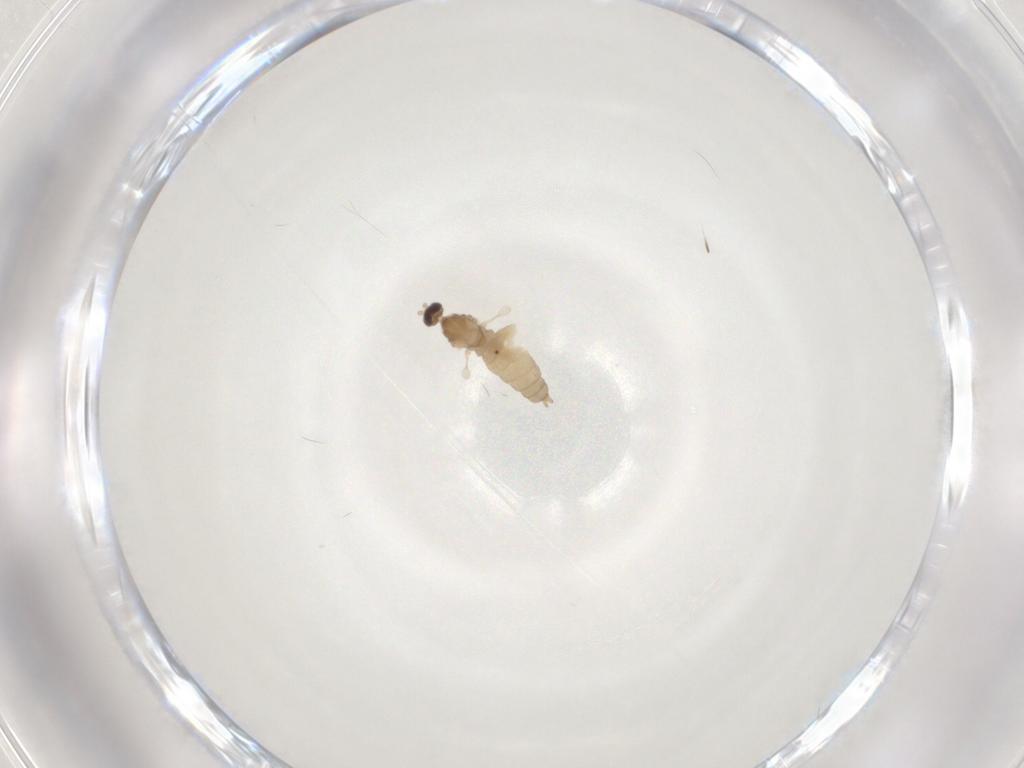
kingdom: Animalia
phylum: Arthropoda
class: Insecta
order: Diptera
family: Cecidomyiidae
